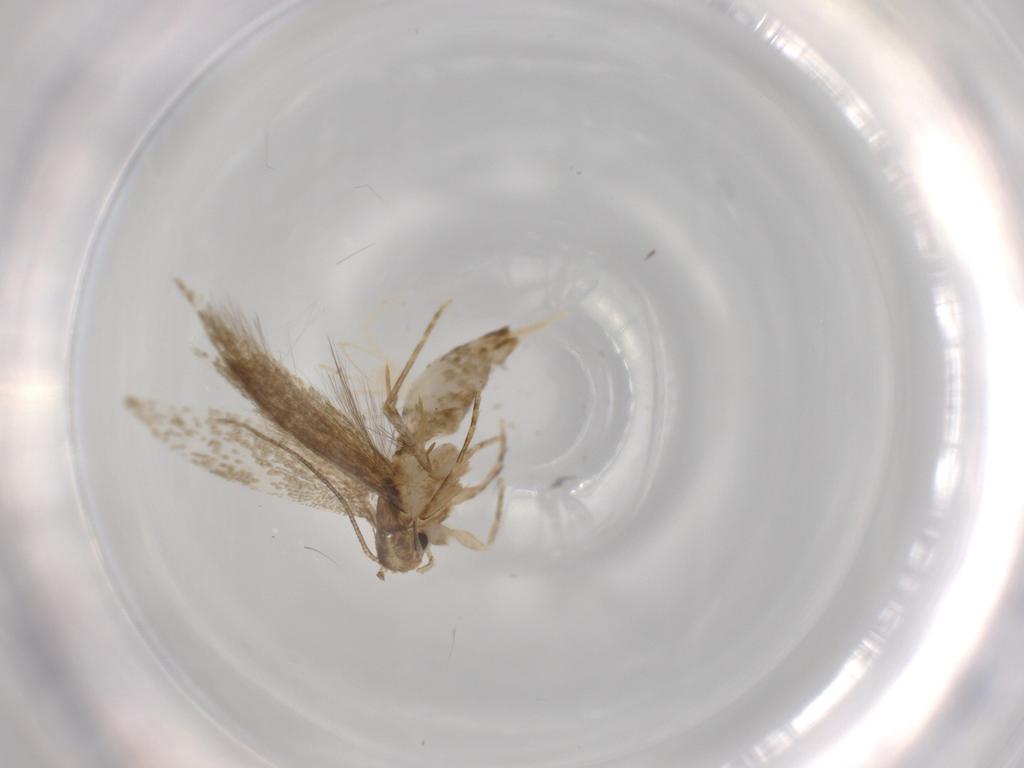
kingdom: Animalia
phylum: Arthropoda
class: Insecta
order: Lepidoptera
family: Tineidae
